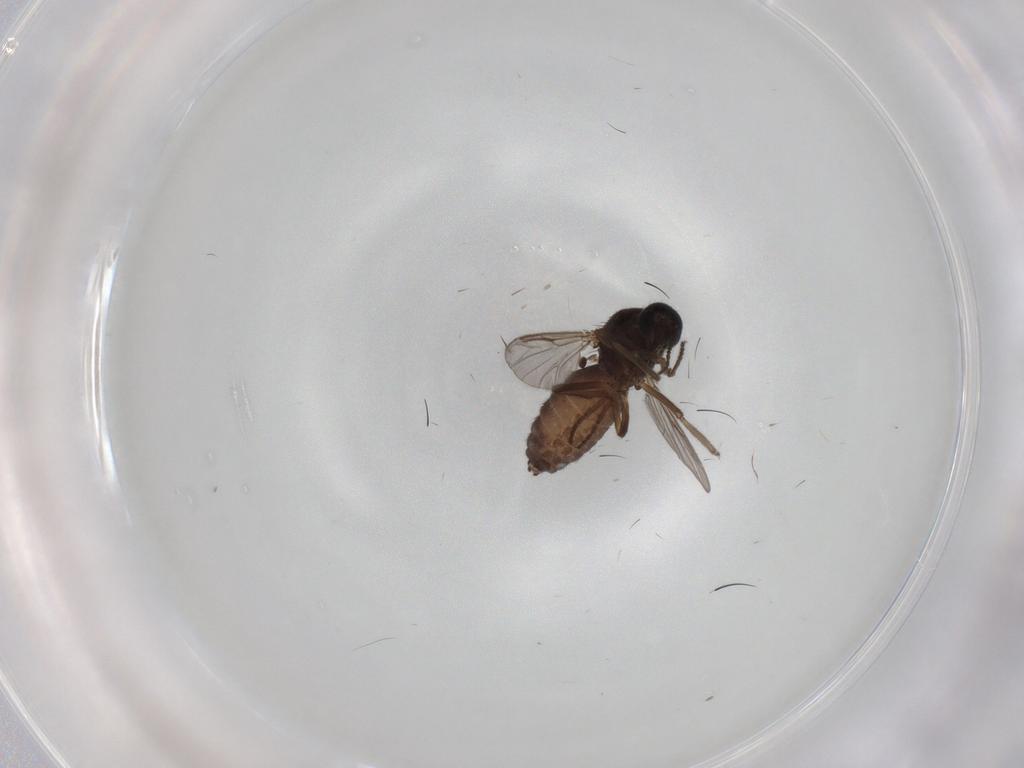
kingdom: Animalia
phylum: Arthropoda
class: Insecta
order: Diptera
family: Ceratopogonidae
